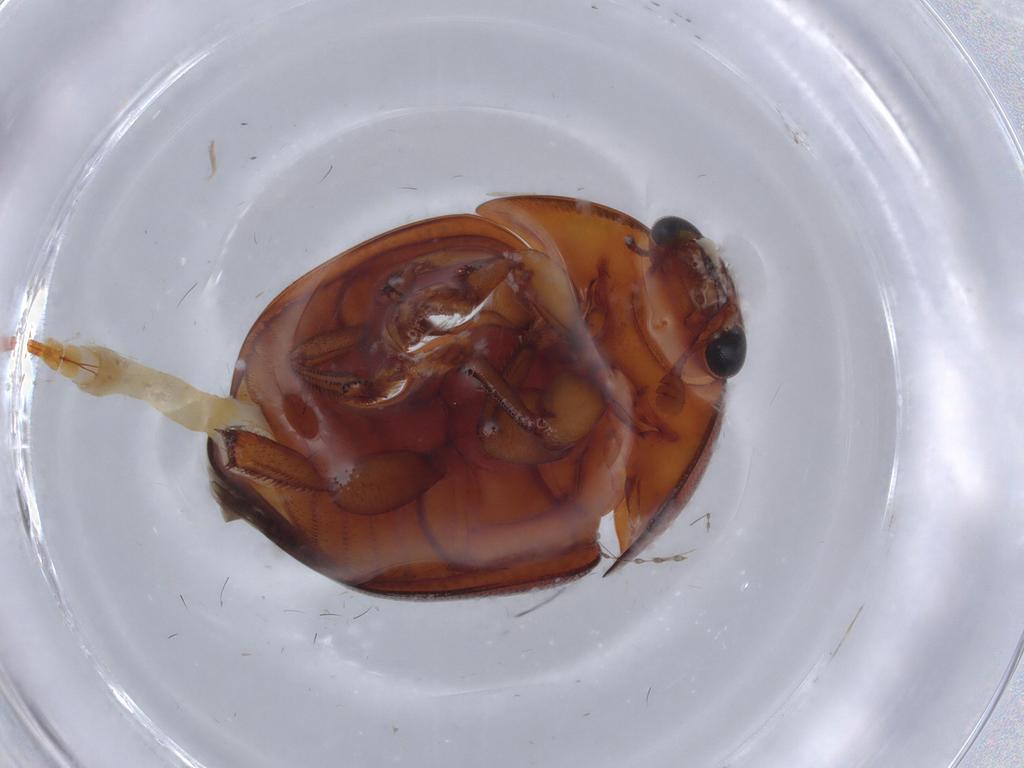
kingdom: Animalia
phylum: Arthropoda
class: Insecta
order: Coleoptera
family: Nitidulidae
